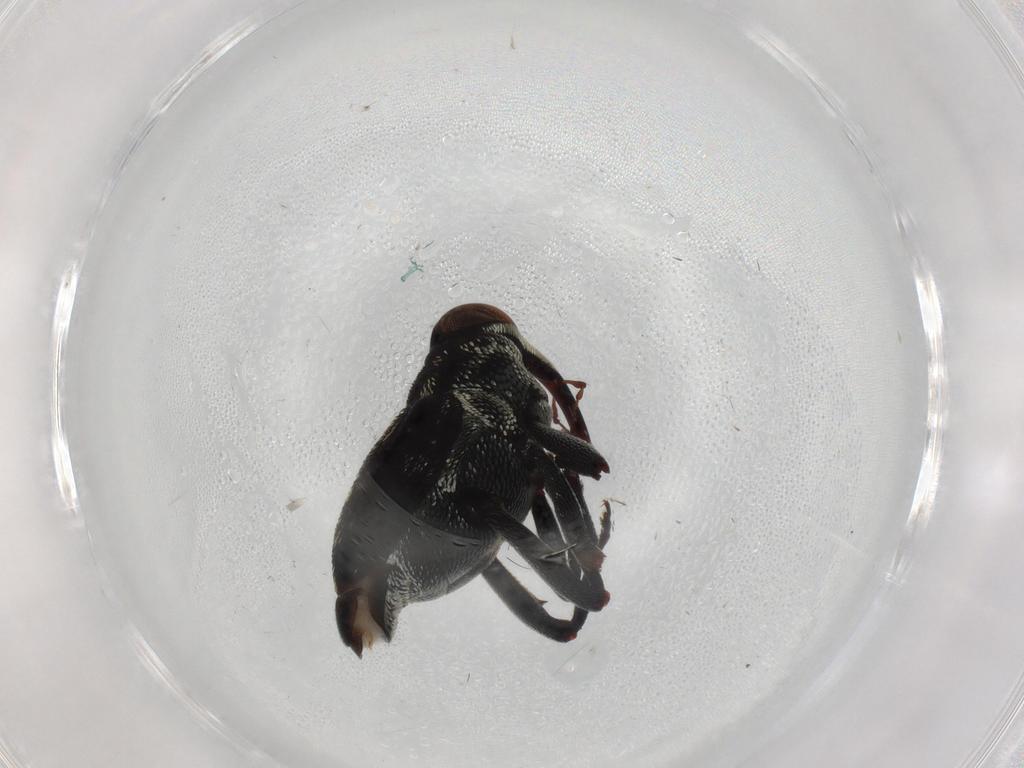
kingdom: Animalia
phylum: Arthropoda
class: Insecta
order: Coleoptera
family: Endomychidae
